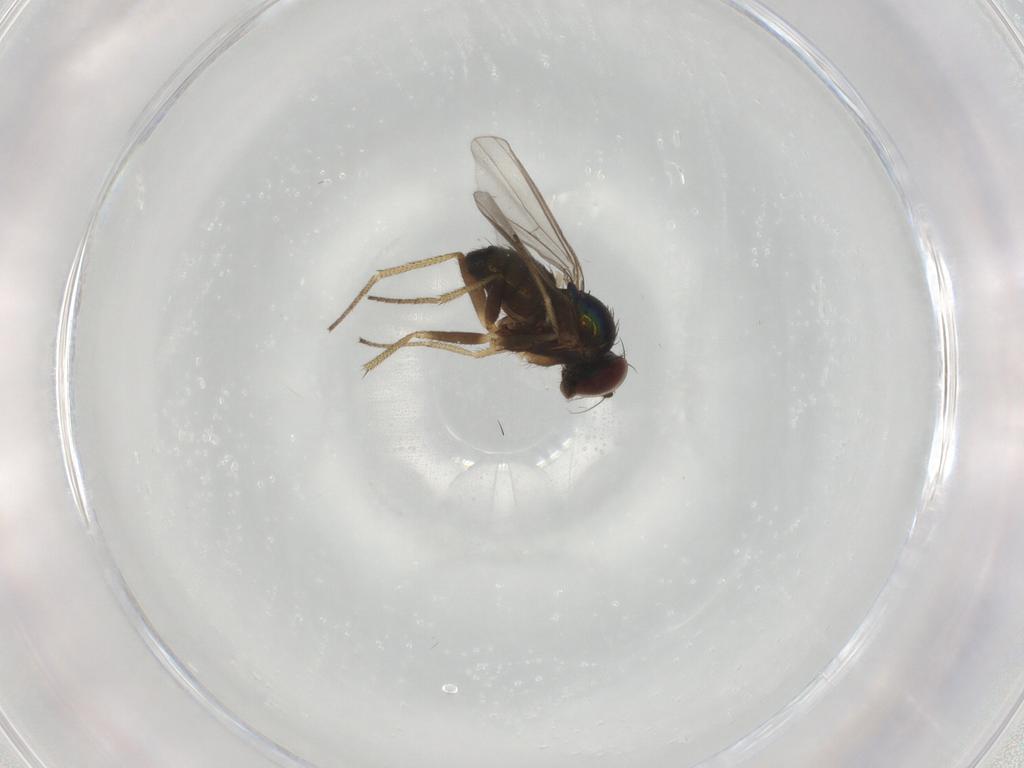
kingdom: Animalia
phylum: Arthropoda
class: Insecta
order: Diptera
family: Dolichopodidae
